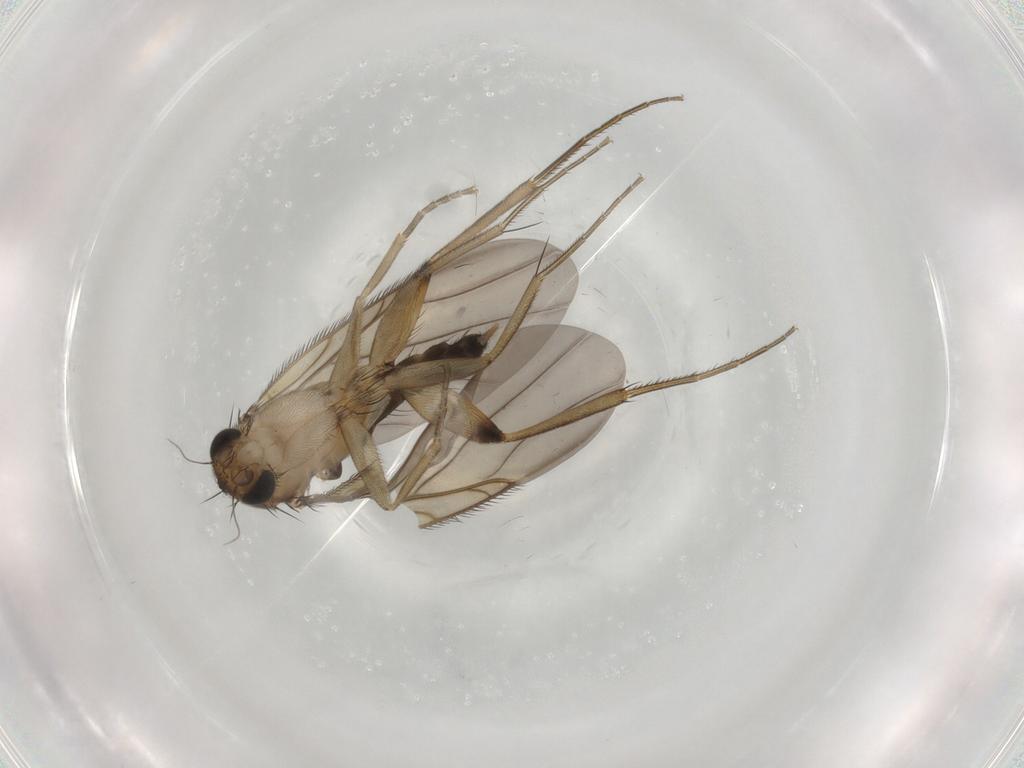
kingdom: Animalia
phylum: Arthropoda
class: Insecta
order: Diptera
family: Phoridae
